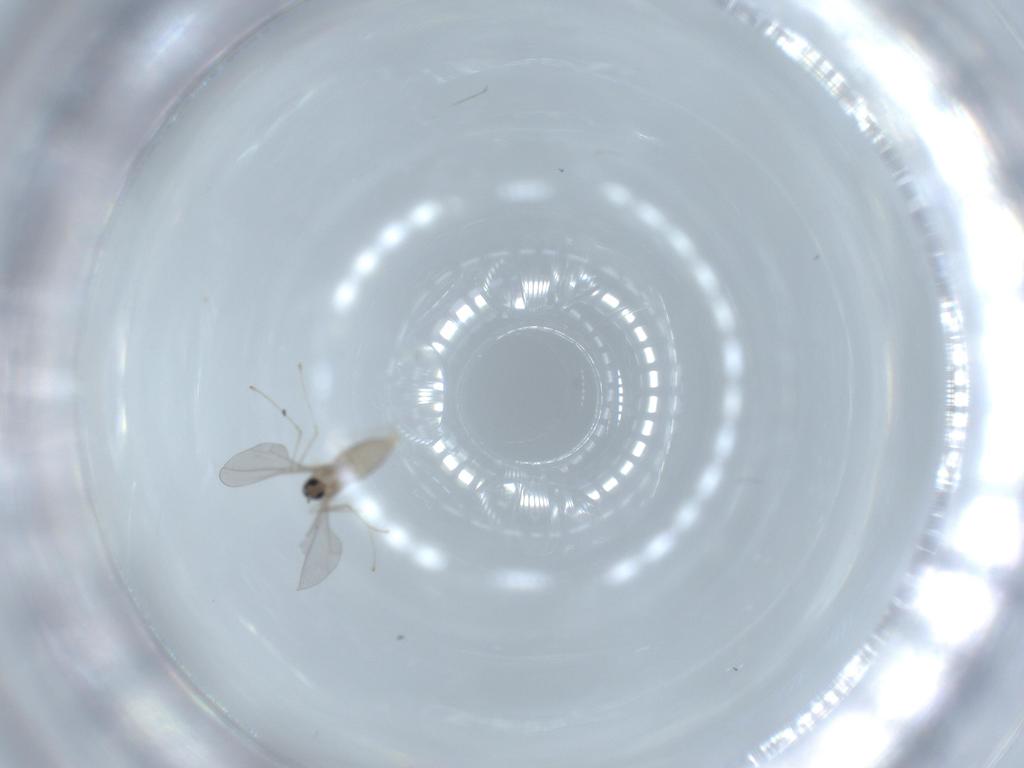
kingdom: Animalia
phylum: Arthropoda
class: Insecta
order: Diptera
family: Cecidomyiidae
